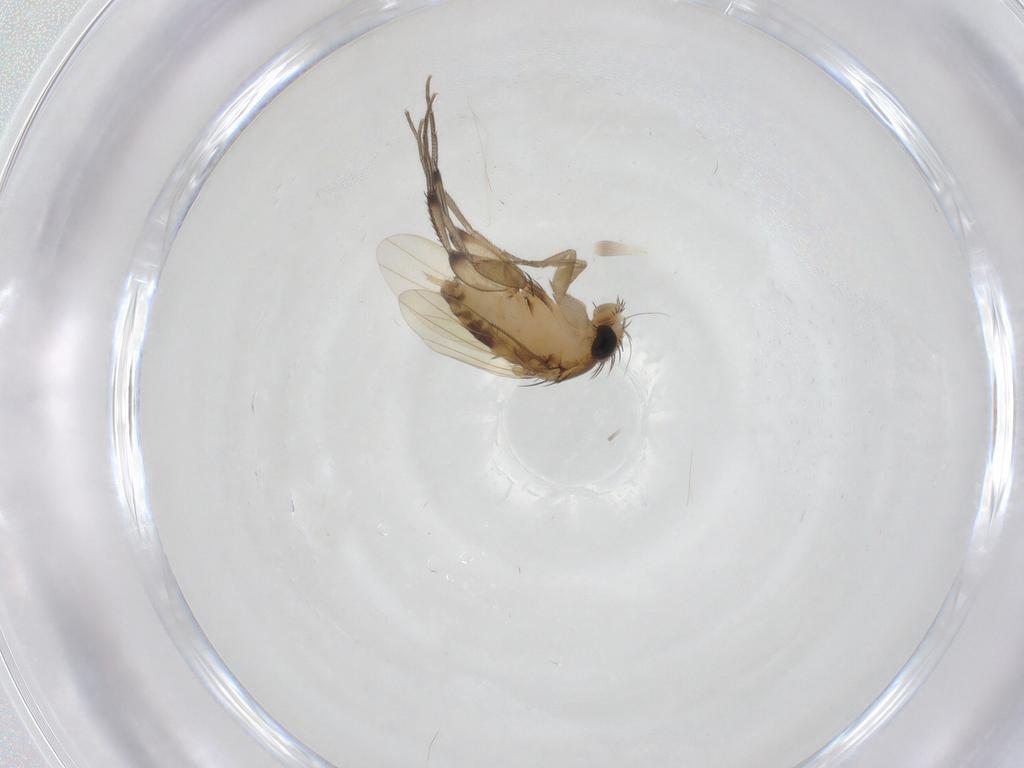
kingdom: Animalia
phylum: Arthropoda
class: Insecta
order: Diptera
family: Phoridae
